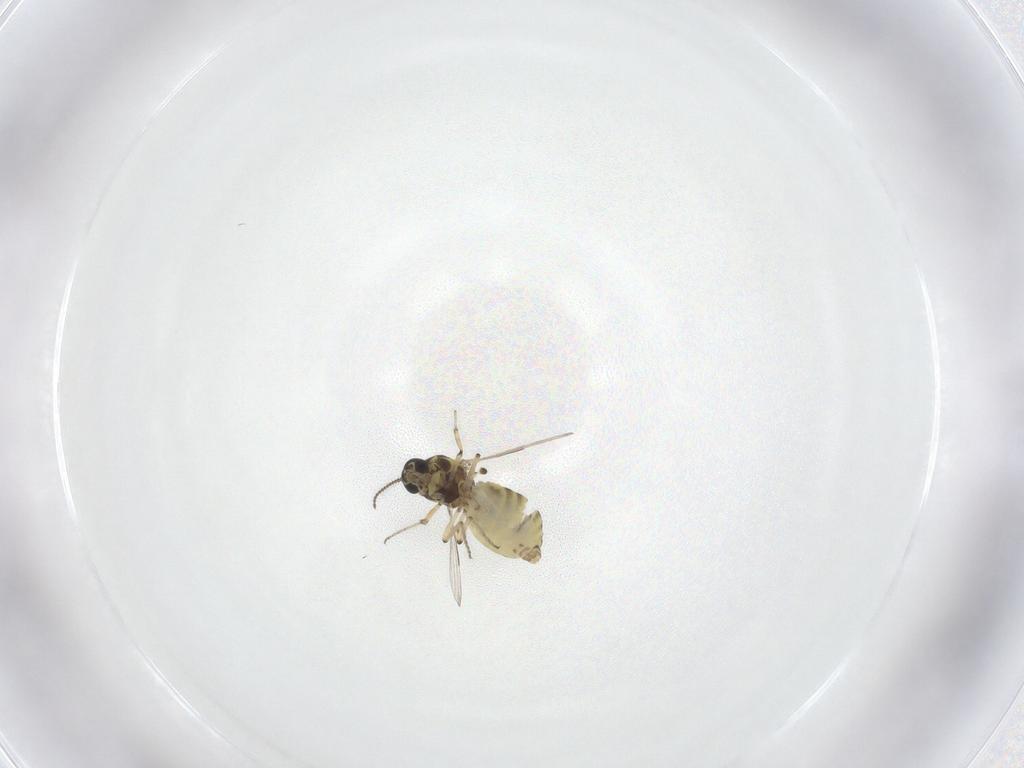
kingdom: Animalia
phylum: Arthropoda
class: Insecta
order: Diptera
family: Ceratopogonidae
